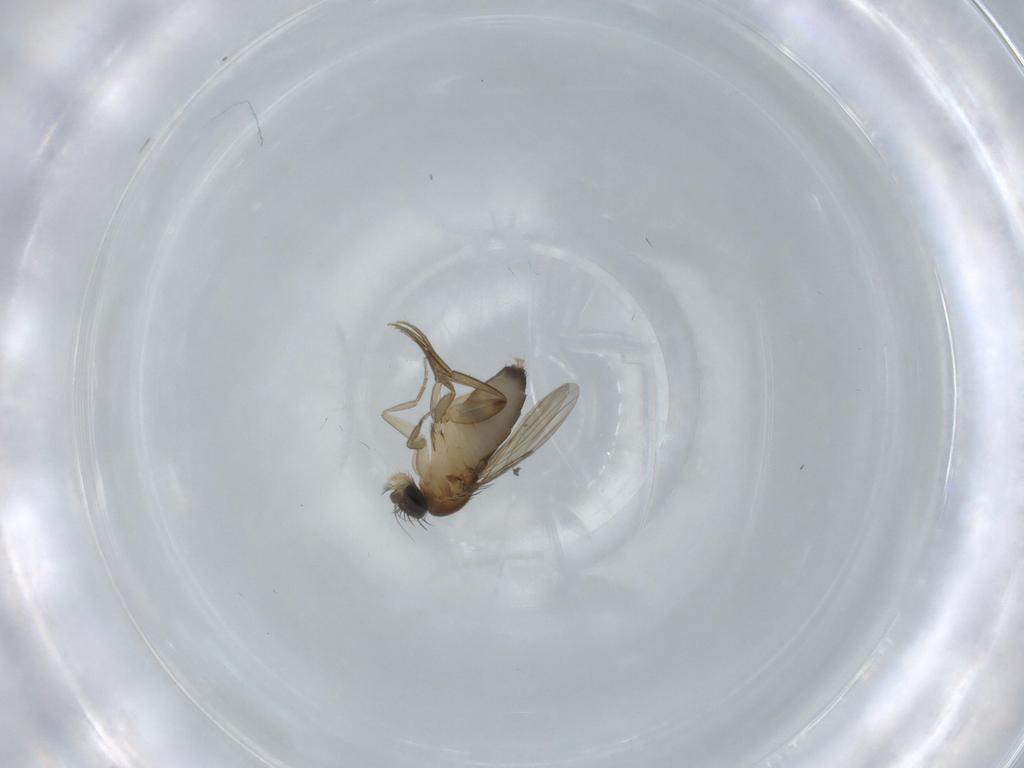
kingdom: Animalia
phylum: Arthropoda
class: Insecta
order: Diptera
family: Phoridae
